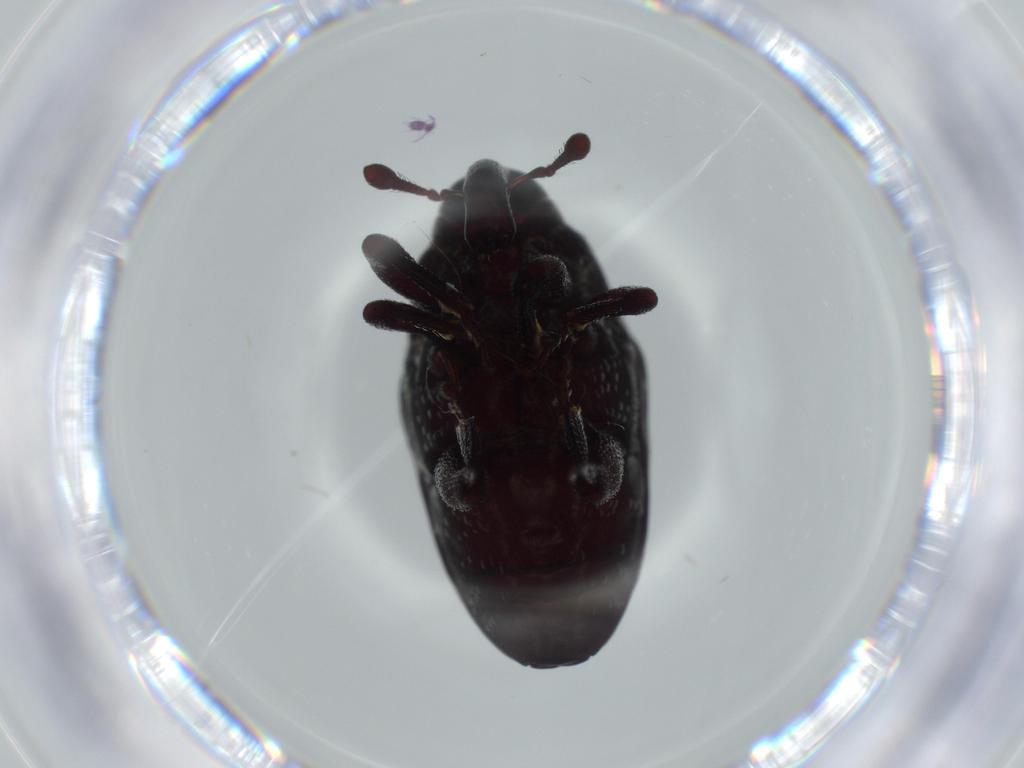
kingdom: Animalia
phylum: Arthropoda
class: Insecta
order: Coleoptera
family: Curculionidae
